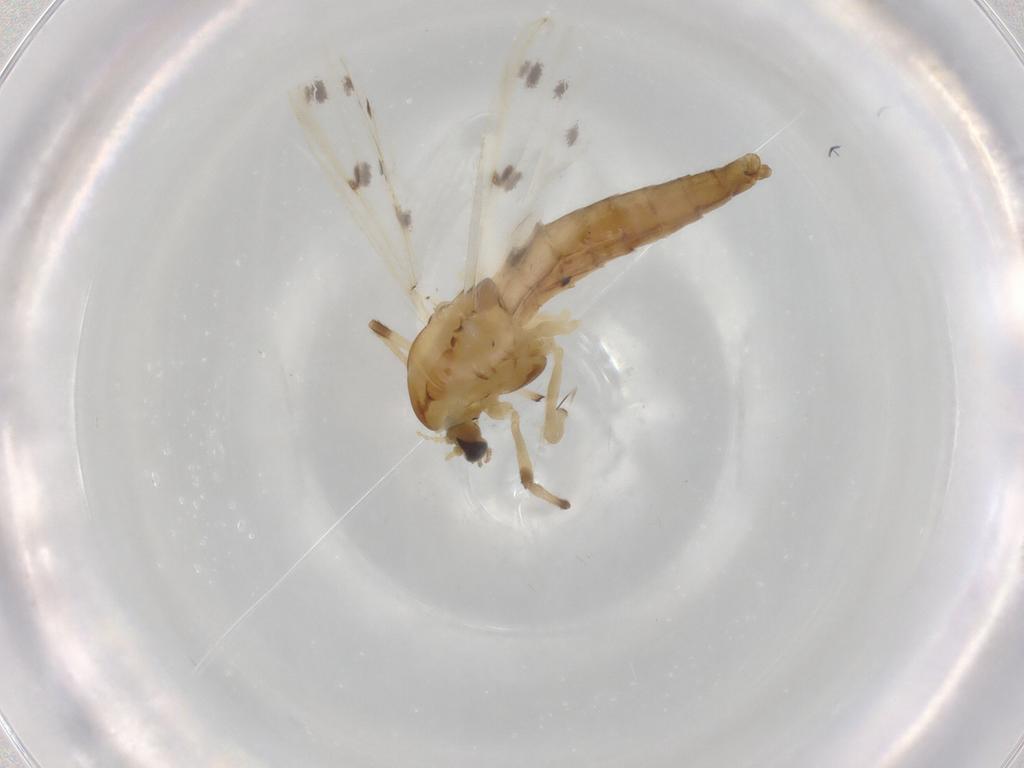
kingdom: Animalia
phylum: Arthropoda
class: Insecta
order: Diptera
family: Chironomidae
